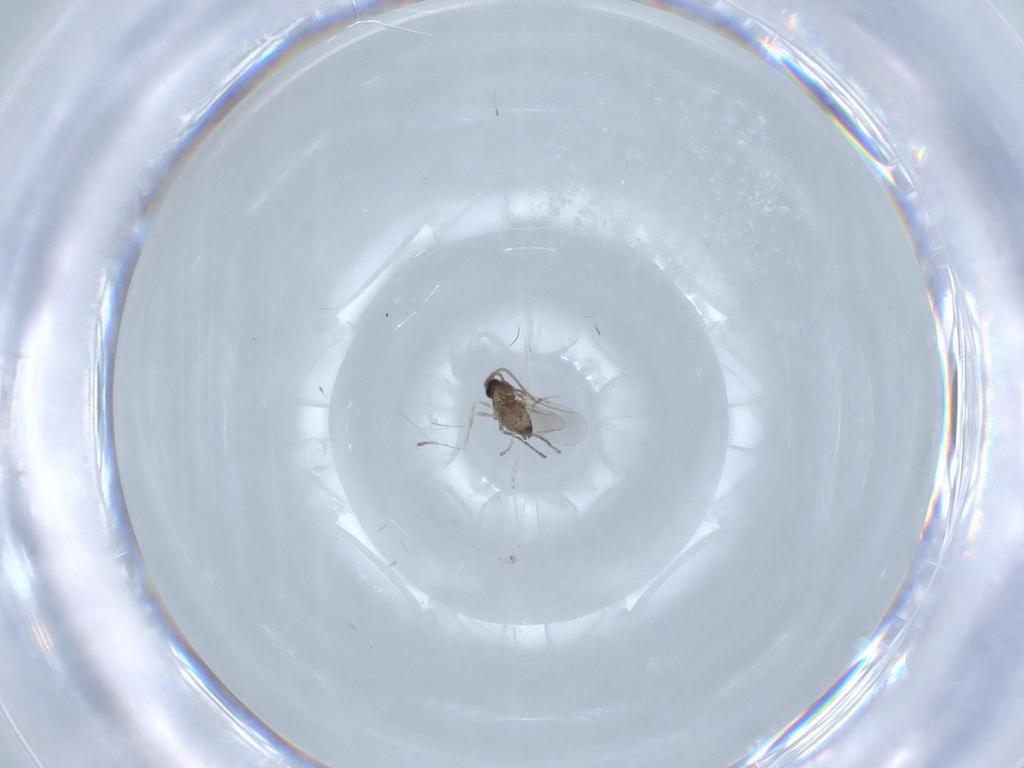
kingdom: Animalia
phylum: Arthropoda
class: Insecta
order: Diptera
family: Cecidomyiidae
